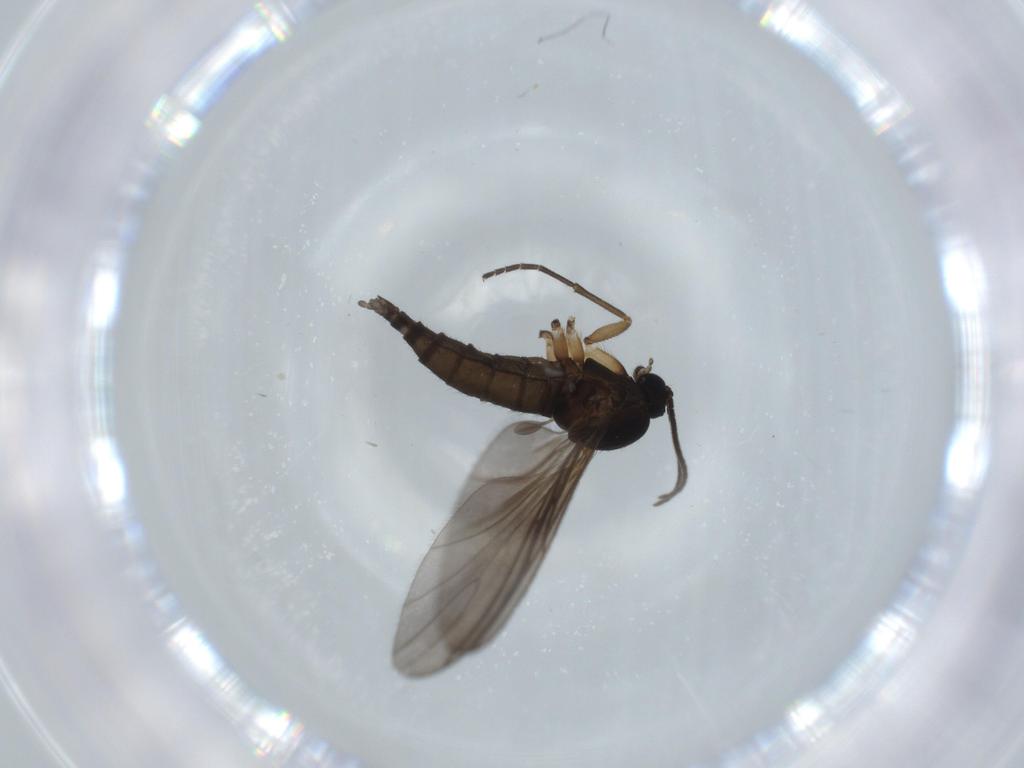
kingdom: Animalia
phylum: Arthropoda
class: Insecta
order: Diptera
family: Sciaridae
